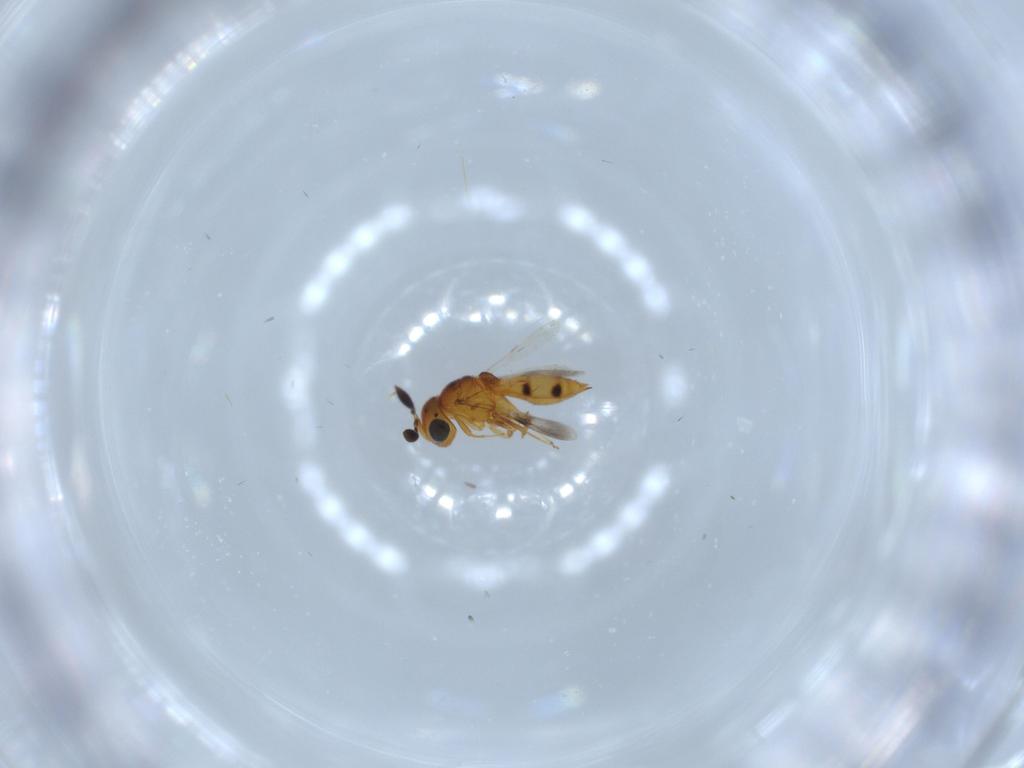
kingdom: Animalia
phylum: Arthropoda
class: Insecta
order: Hymenoptera
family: Scelionidae
